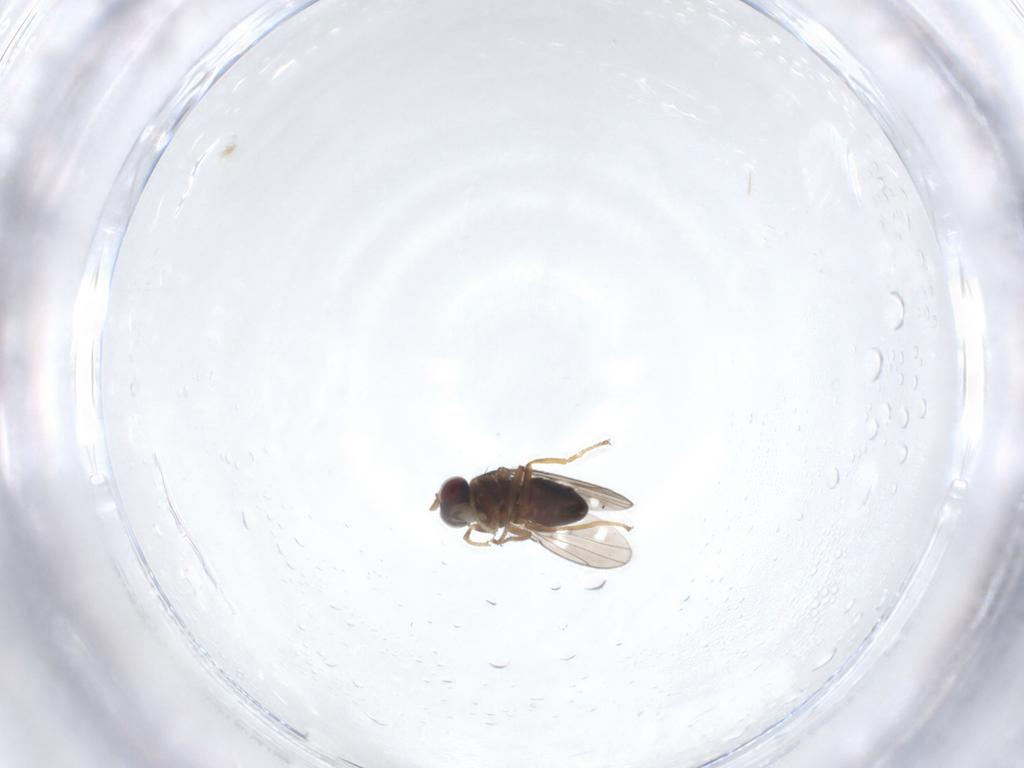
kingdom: Animalia
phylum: Arthropoda
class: Insecta
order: Diptera
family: Ephydridae
